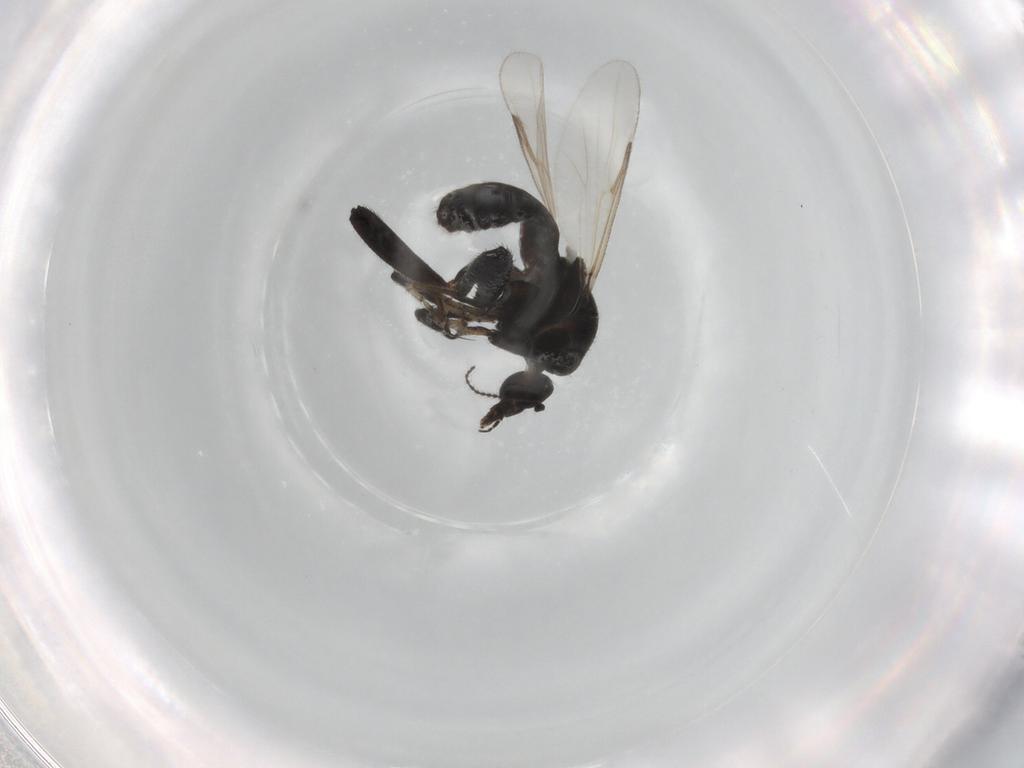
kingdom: Animalia
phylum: Arthropoda
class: Insecta
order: Diptera
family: Ceratopogonidae
